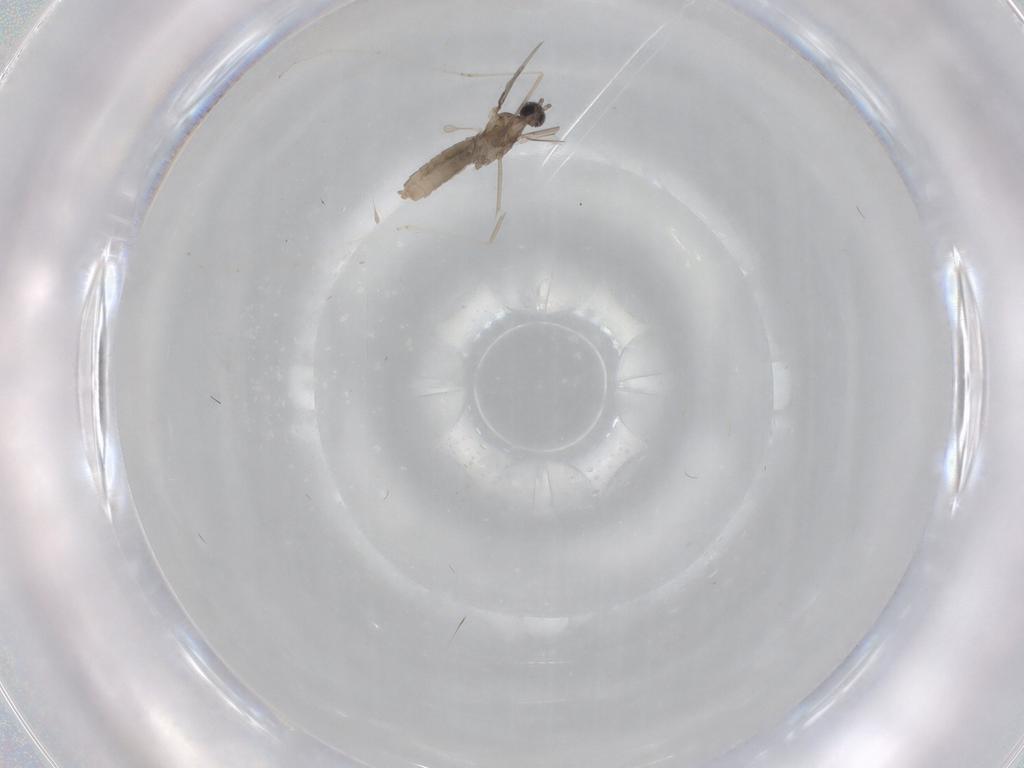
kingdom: Animalia
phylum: Arthropoda
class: Insecta
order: Diptera
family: Cecidomyiidae
